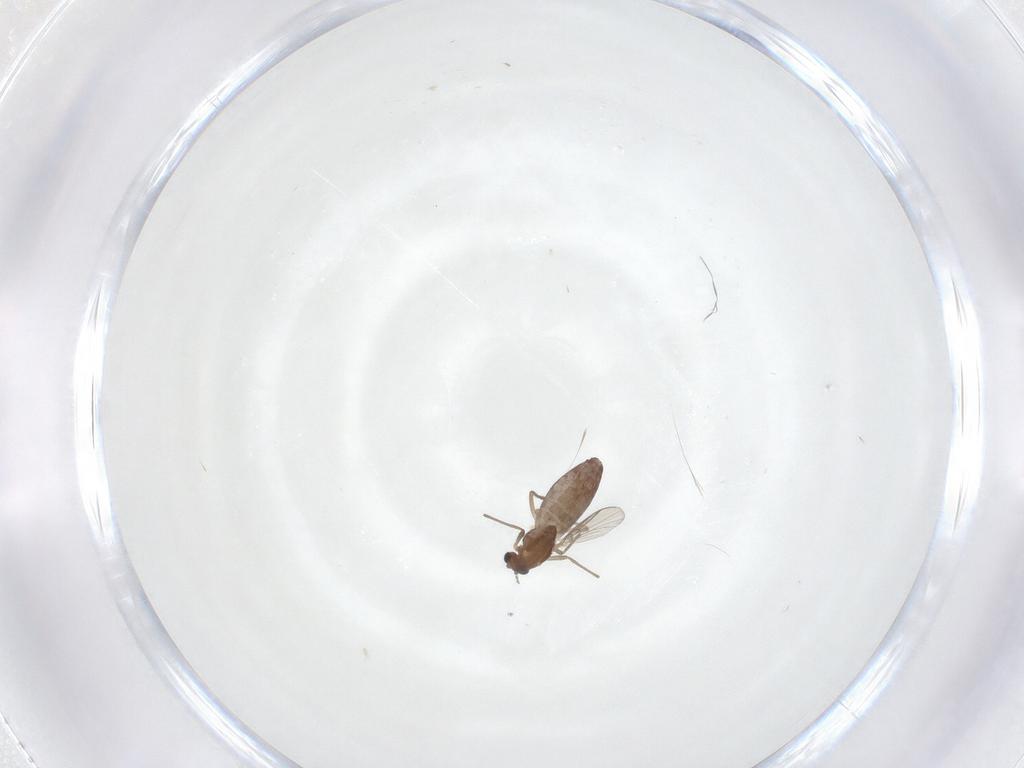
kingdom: Animalia
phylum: Arthropoda
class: Insecta
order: Diptera
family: Chironomidae
